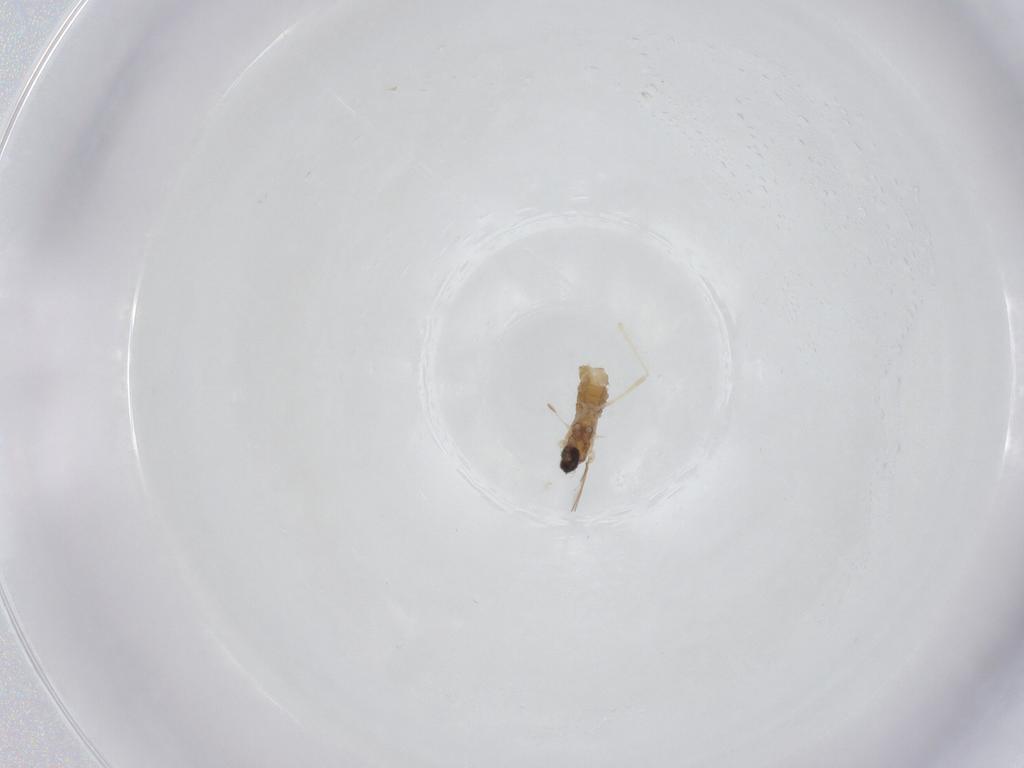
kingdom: Animalia
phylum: Arthropoda
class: Insecta
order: Diptera
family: Cecidomyiidae
